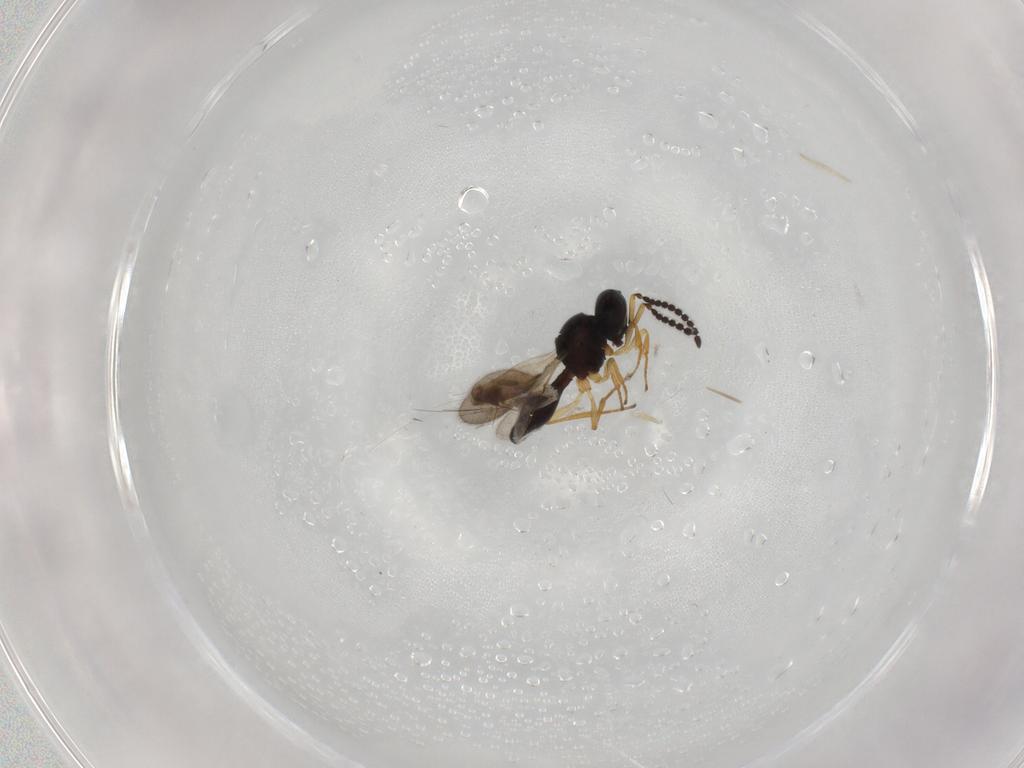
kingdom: Animalia
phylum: Arthropoda
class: Insecta
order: Hymenoptera
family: Scelionidae
